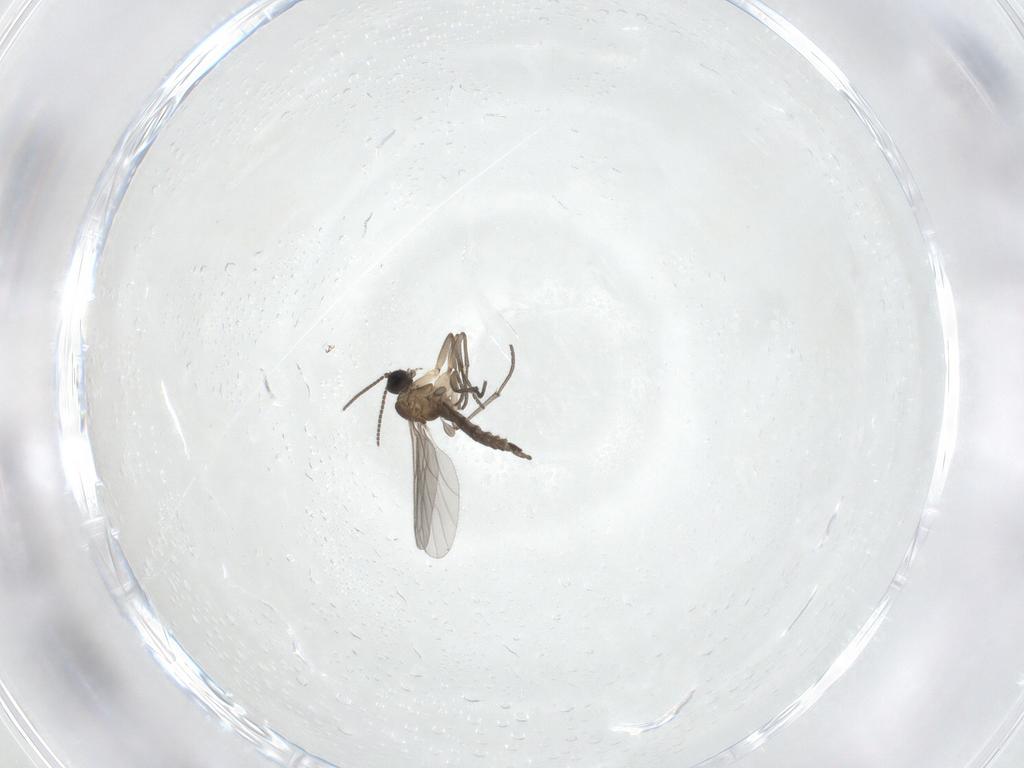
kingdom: Animalia
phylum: Arthropoda
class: Insecta
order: Diptera
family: Sciaridae
